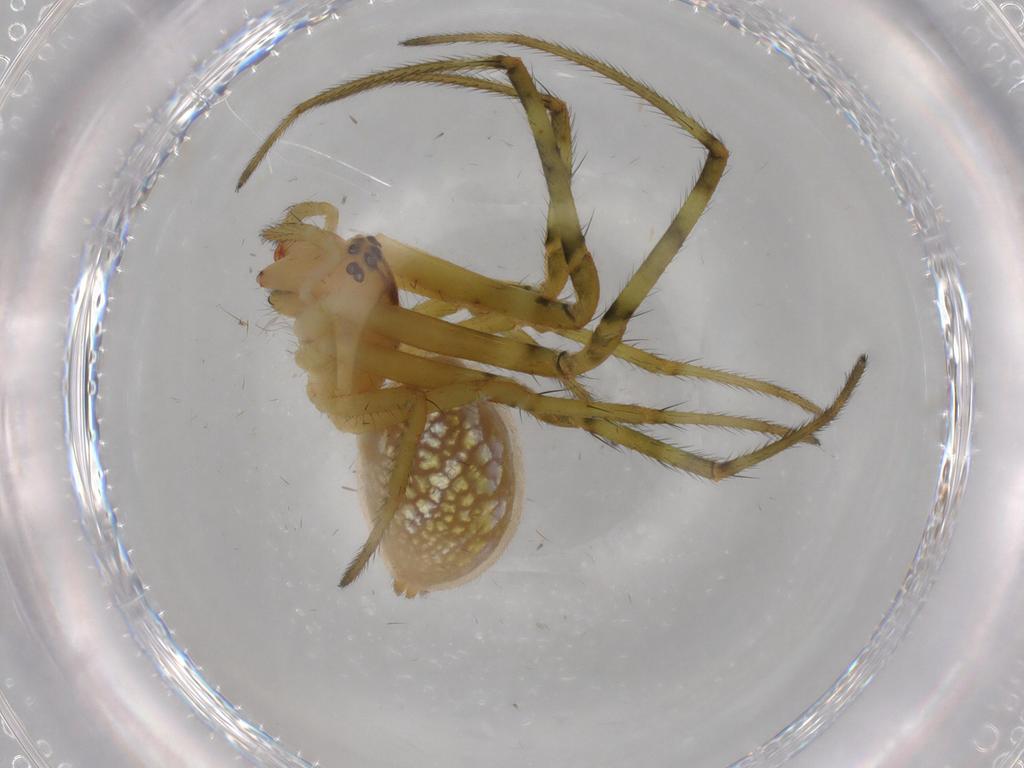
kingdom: Animalia
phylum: Arthropoda
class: Arachnida
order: Araneae
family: Tetragnathidae
